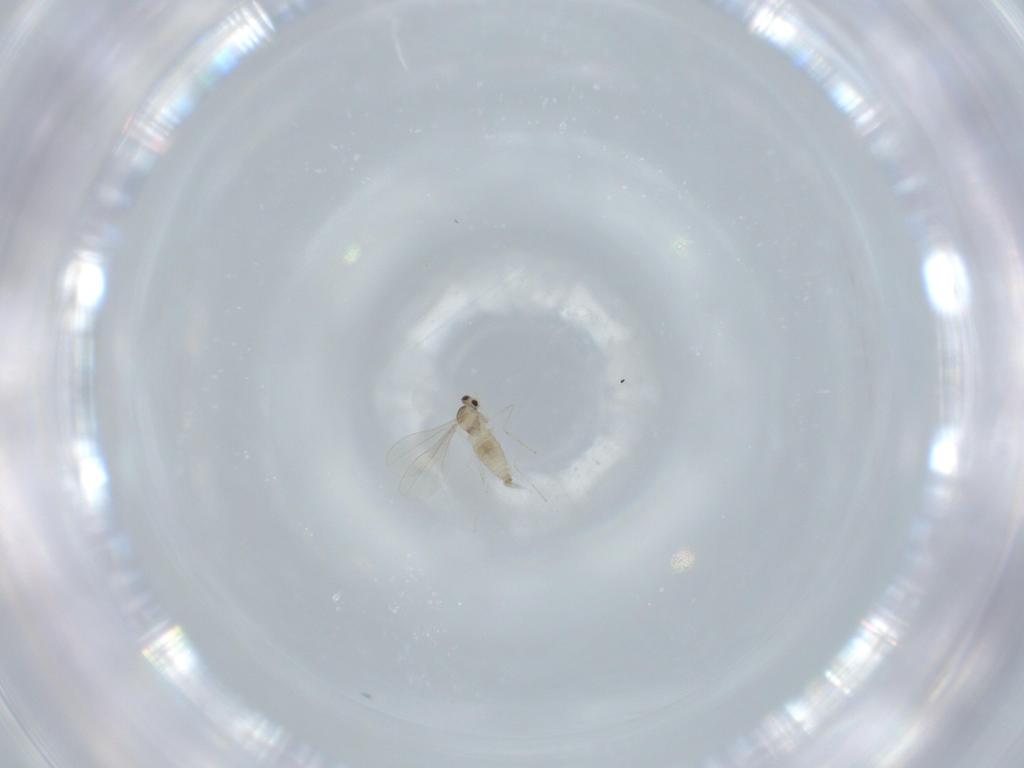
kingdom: Animalia
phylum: Arthropoda
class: Insecta
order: Diptera
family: Cecidomyiidae
